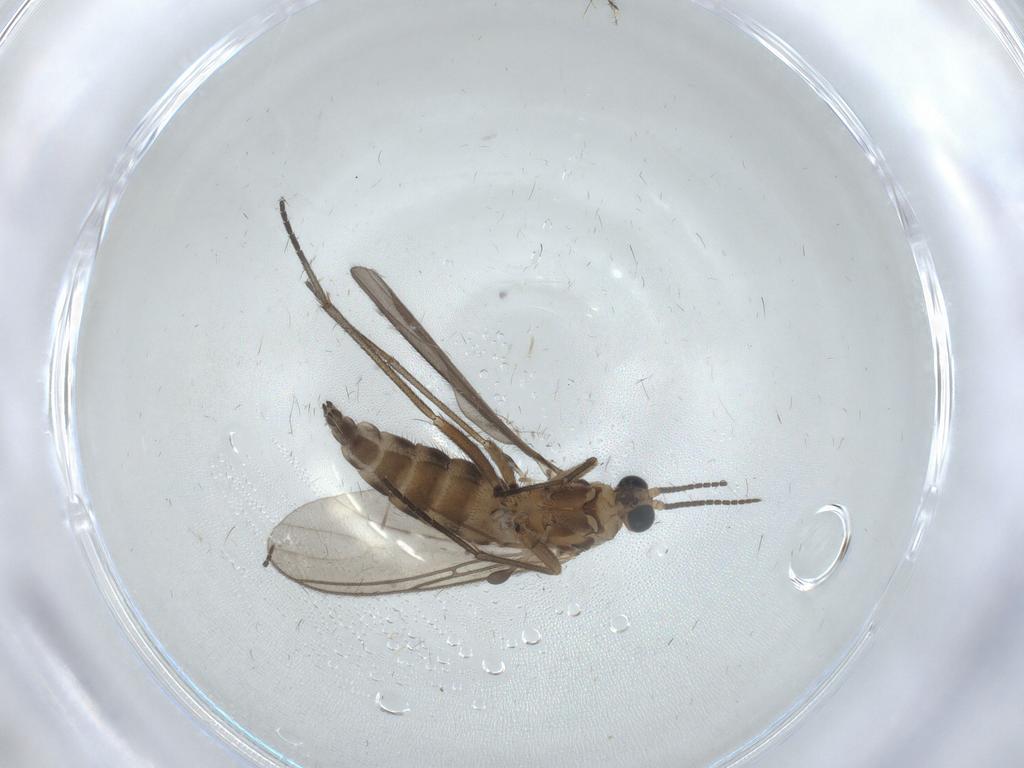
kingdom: Animalia
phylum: Arthropoda
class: Insecta
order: Diptera
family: Sciaridae
